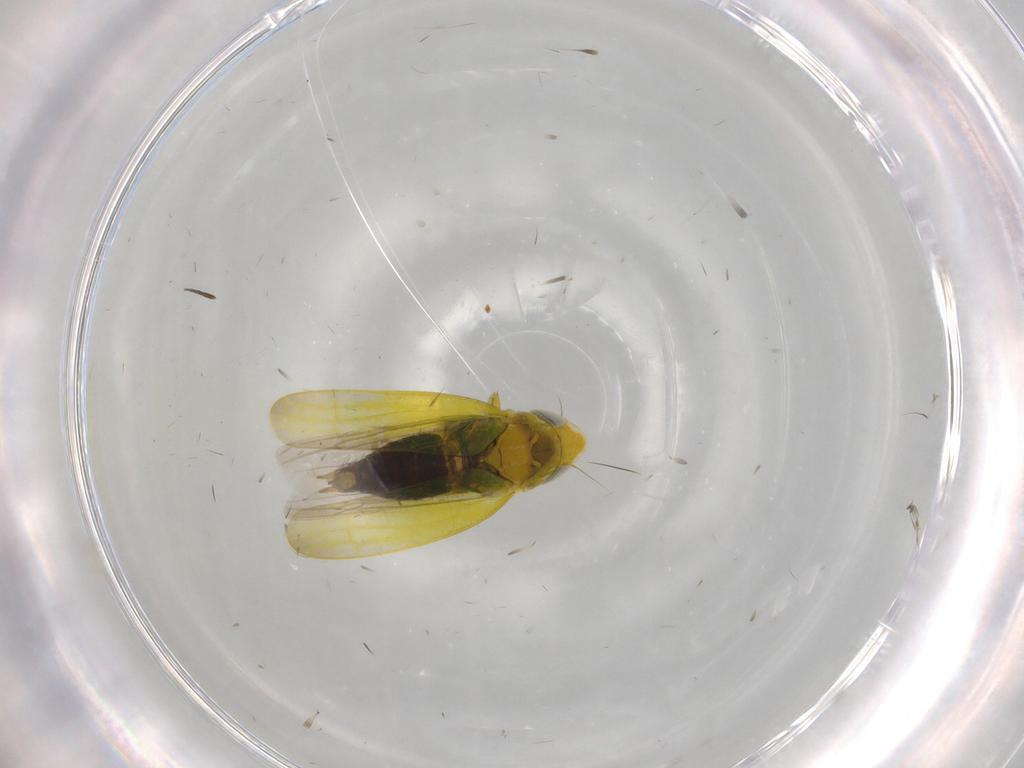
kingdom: Animalia
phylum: Arthropoda
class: Insecta
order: Hemiptera
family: Cicadellidae
